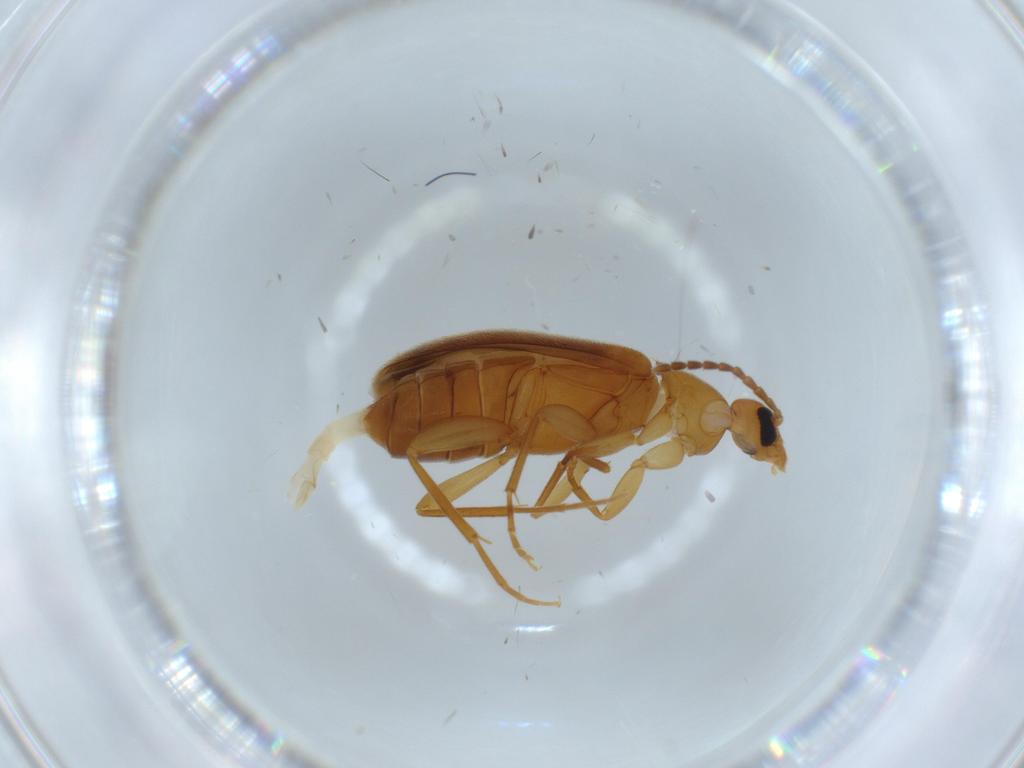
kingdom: Animalia
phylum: Arthropoda
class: Insecta
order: Coleoptera
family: Scraptiidae
